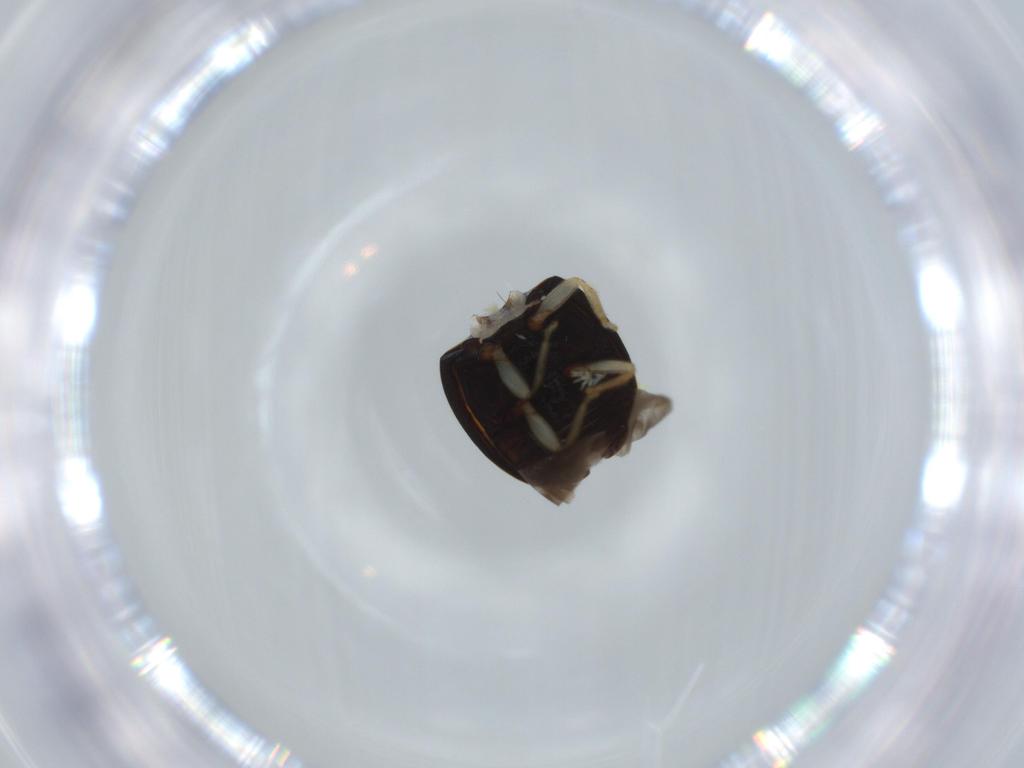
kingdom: Animalia
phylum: Arthropoda
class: Insecta
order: Coleoptera
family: Coccinellidae
